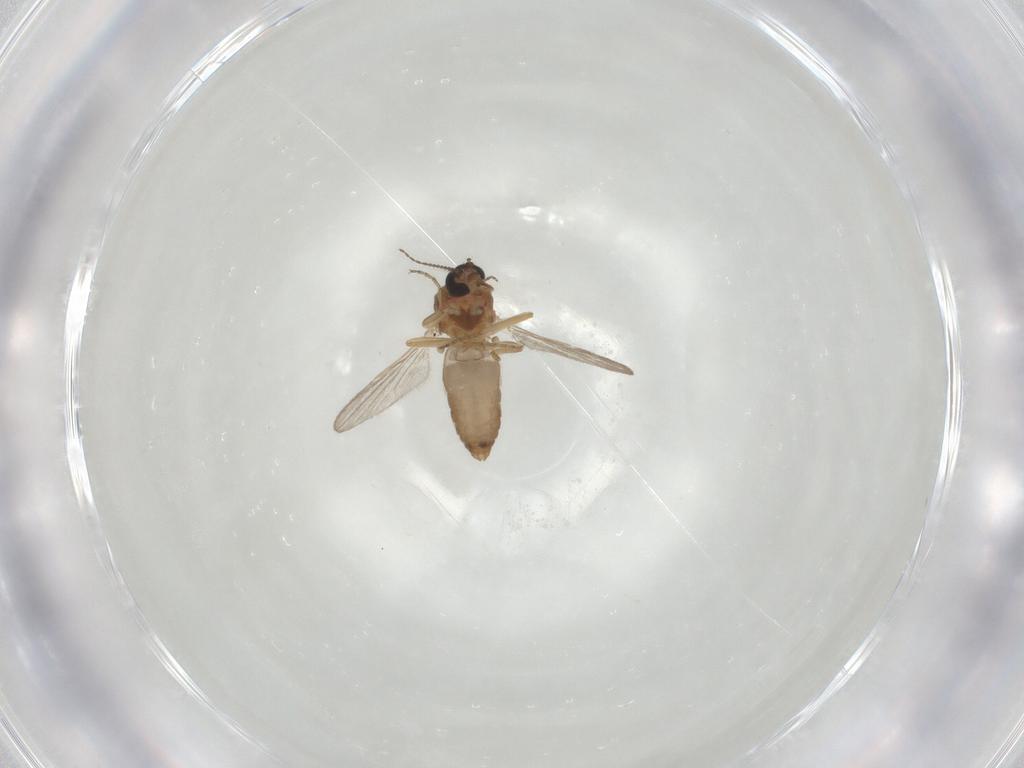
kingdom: Animalia
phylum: Arthropoda
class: Insecta
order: Diptera
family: Ceratopogonidae
